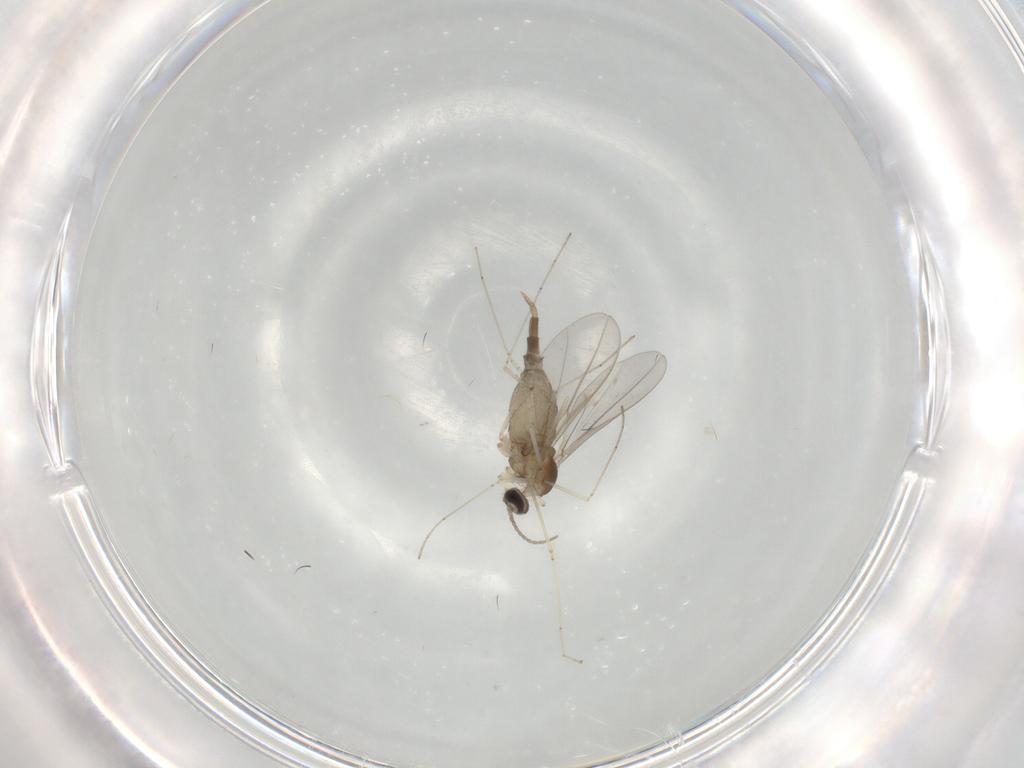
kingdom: Animalia
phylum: Arthropoda
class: Insecta
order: Diptera
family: Cecidomyiidae
